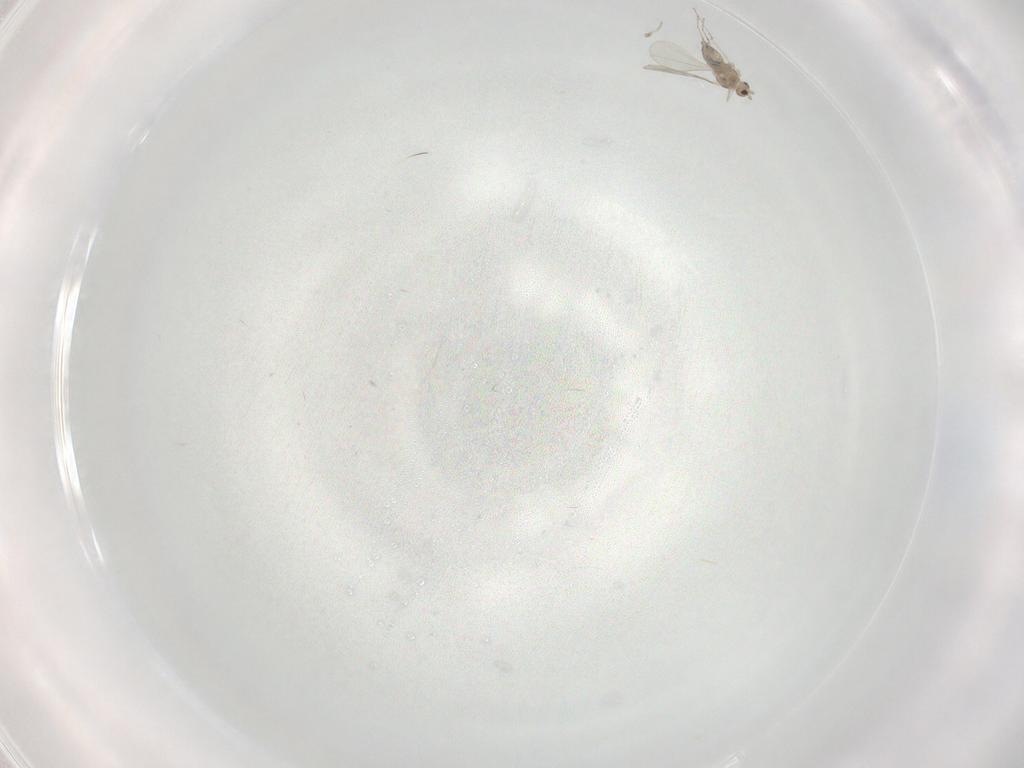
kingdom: Animalia
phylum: Arthropoda
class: Insecta
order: Diptera
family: Cecidomyiidae
